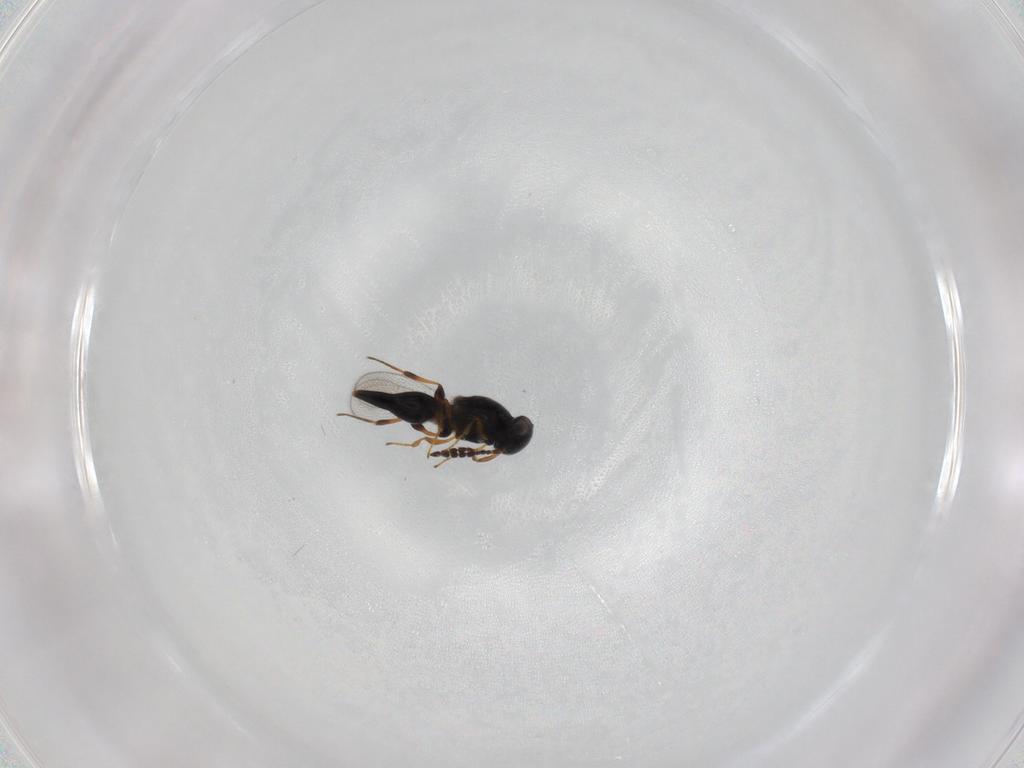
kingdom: Animalia
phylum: Arthropoda
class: Insecta
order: Hymenoptera
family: Platygastridae
